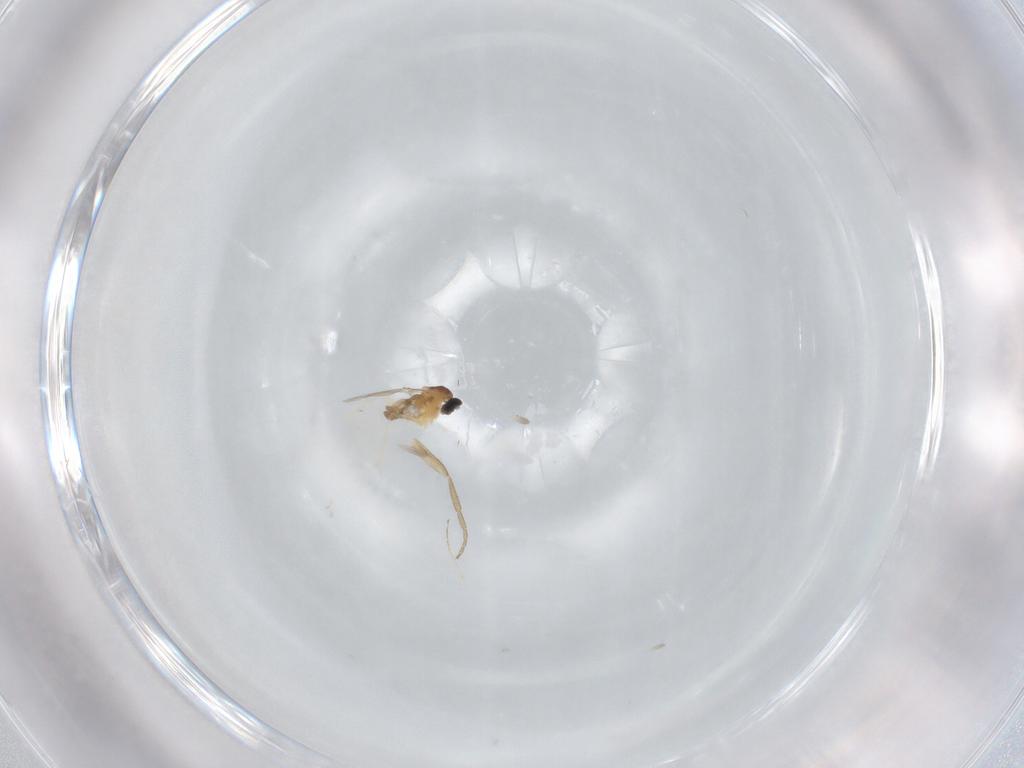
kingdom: Animalia
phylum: Arthropoda
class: Insecta
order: Diptera
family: Cecidomyiidae
